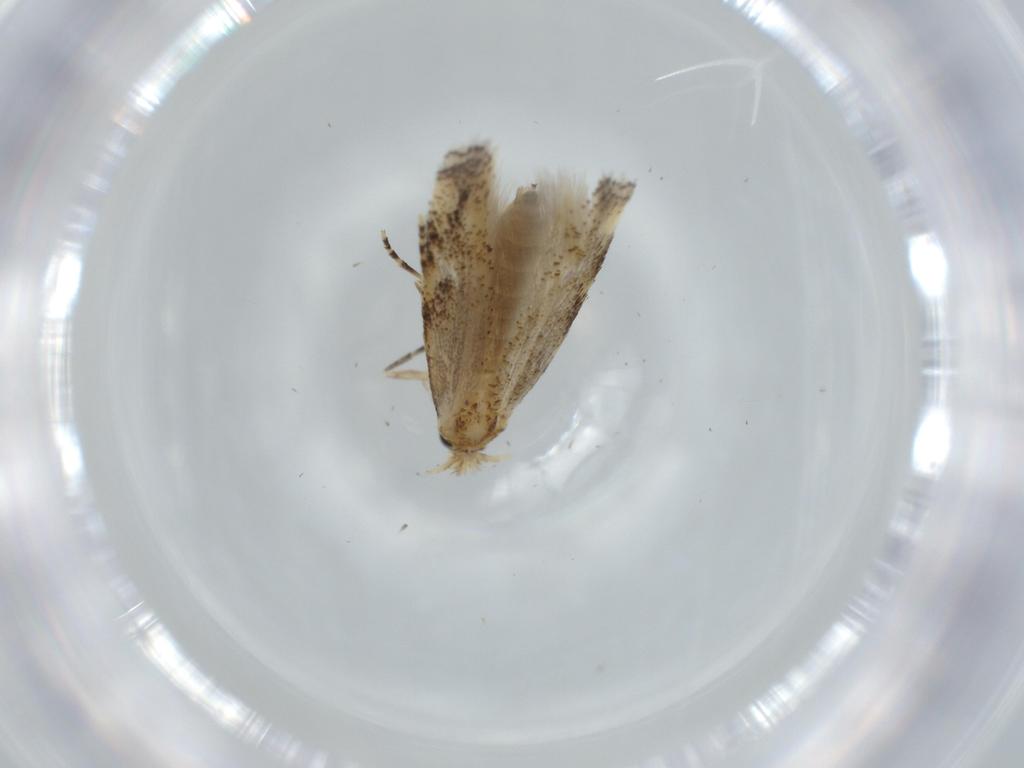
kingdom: Animalia
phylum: Arthropoda
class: Insecta
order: Lepidoptera
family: Bucculatricidae
